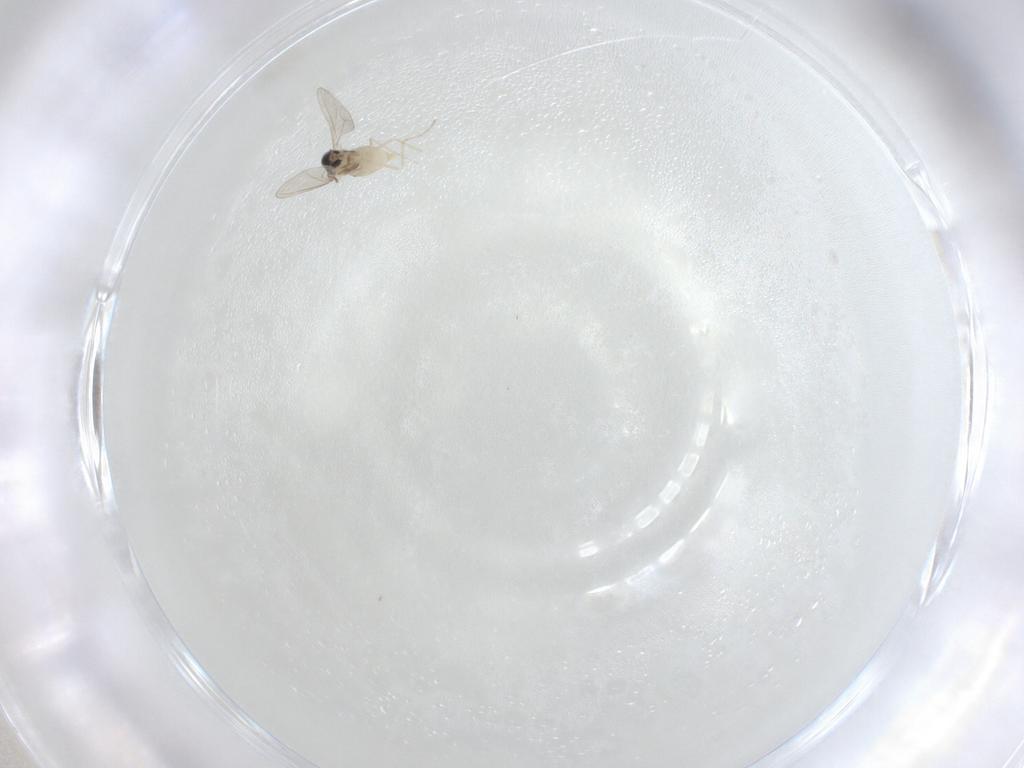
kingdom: Animalia
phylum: Arthropoda
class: Insecta
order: Diptera
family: Cecidomyiidae
